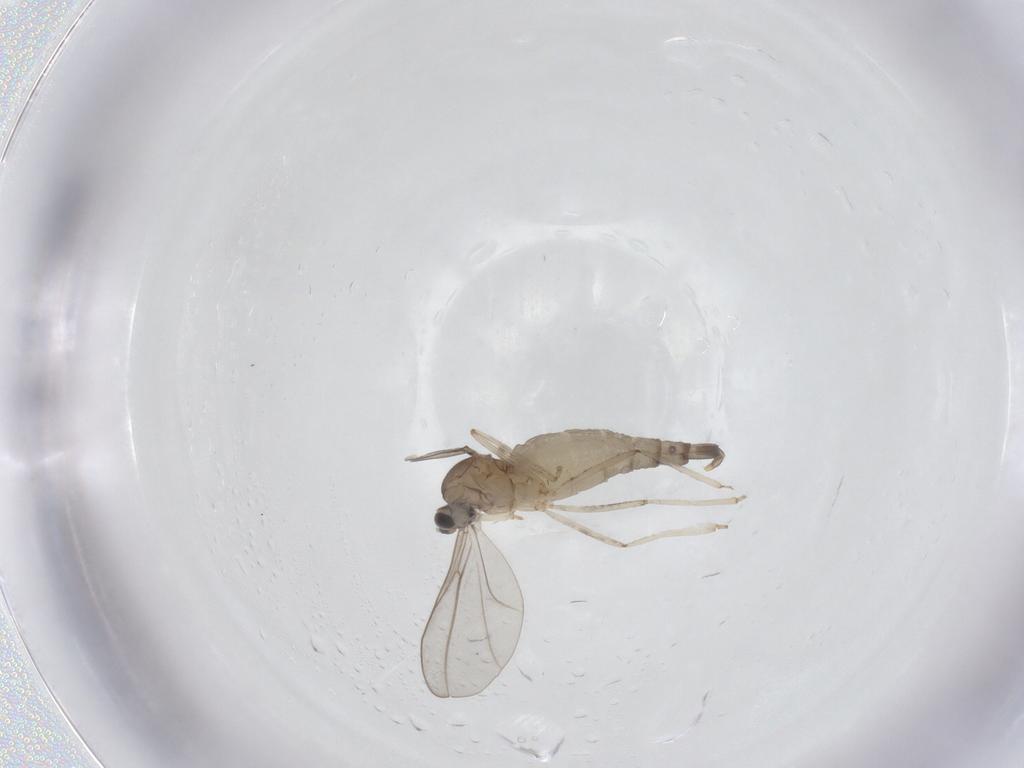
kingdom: Animalia
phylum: Arthropoda
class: Insecta
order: Diptera
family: Cecidomyiidae
